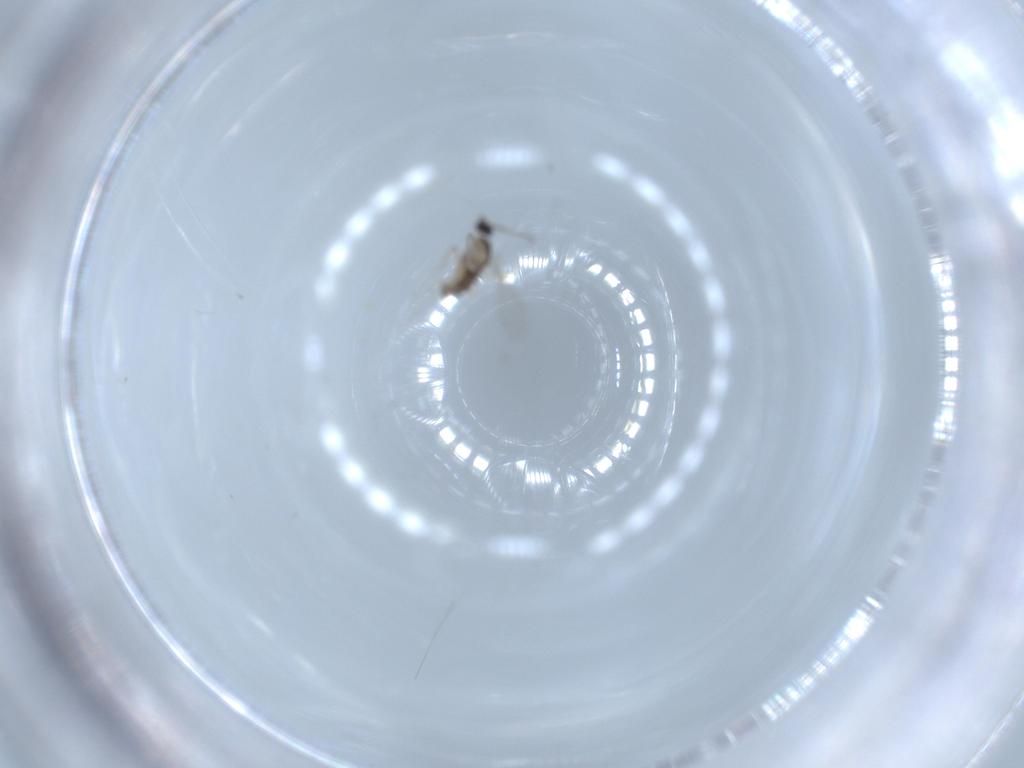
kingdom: Animalia
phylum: Arthropoda
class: Insecta
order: Diptera
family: Cecidomyiidae
